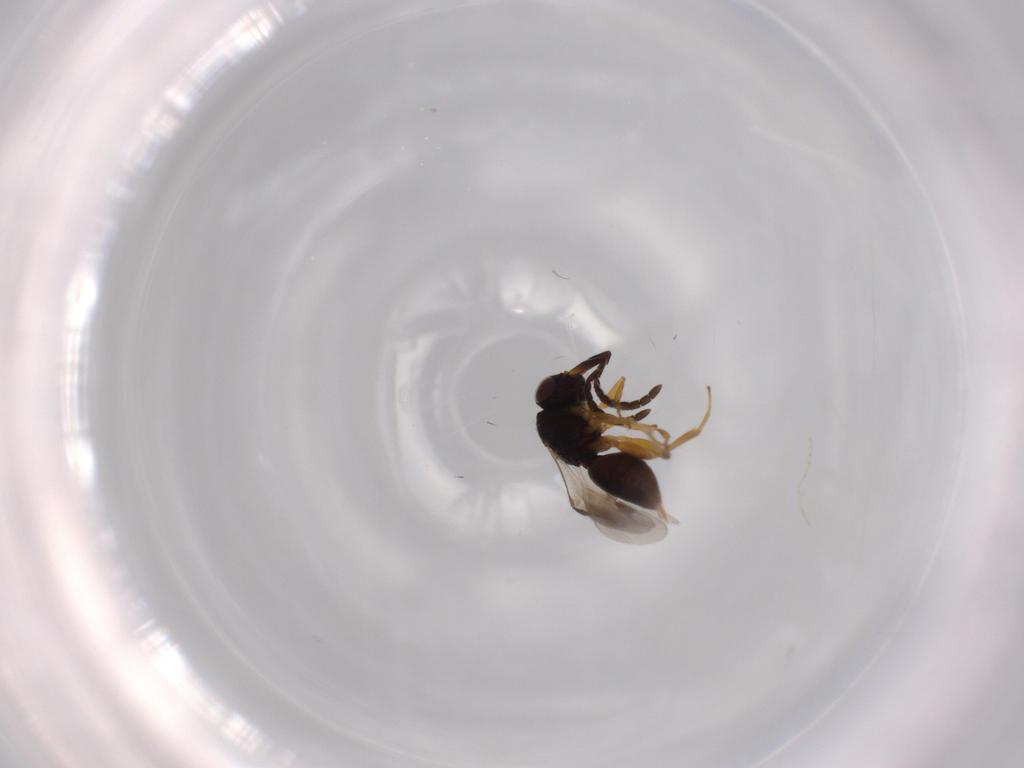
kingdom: Animalia
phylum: Arthropoda
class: Insecta
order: Hymenoptera
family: Megaspilidae
